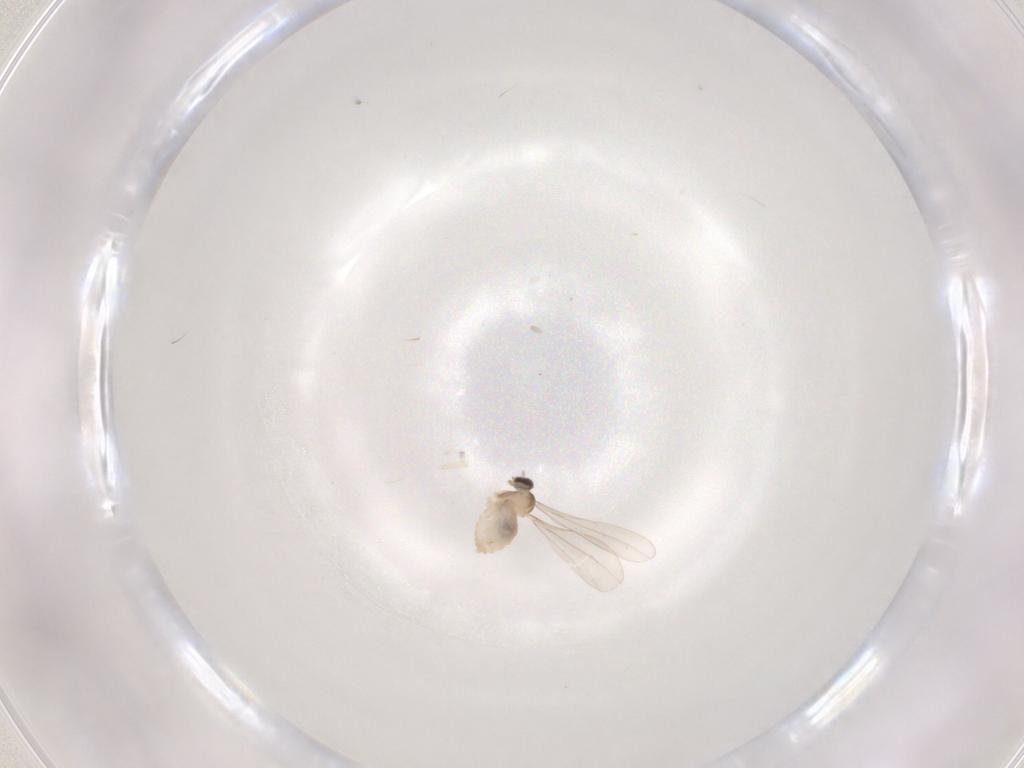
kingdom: Animalia
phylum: Arthropoda
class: Insecta
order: Diptera
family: Cecidomyiidae
